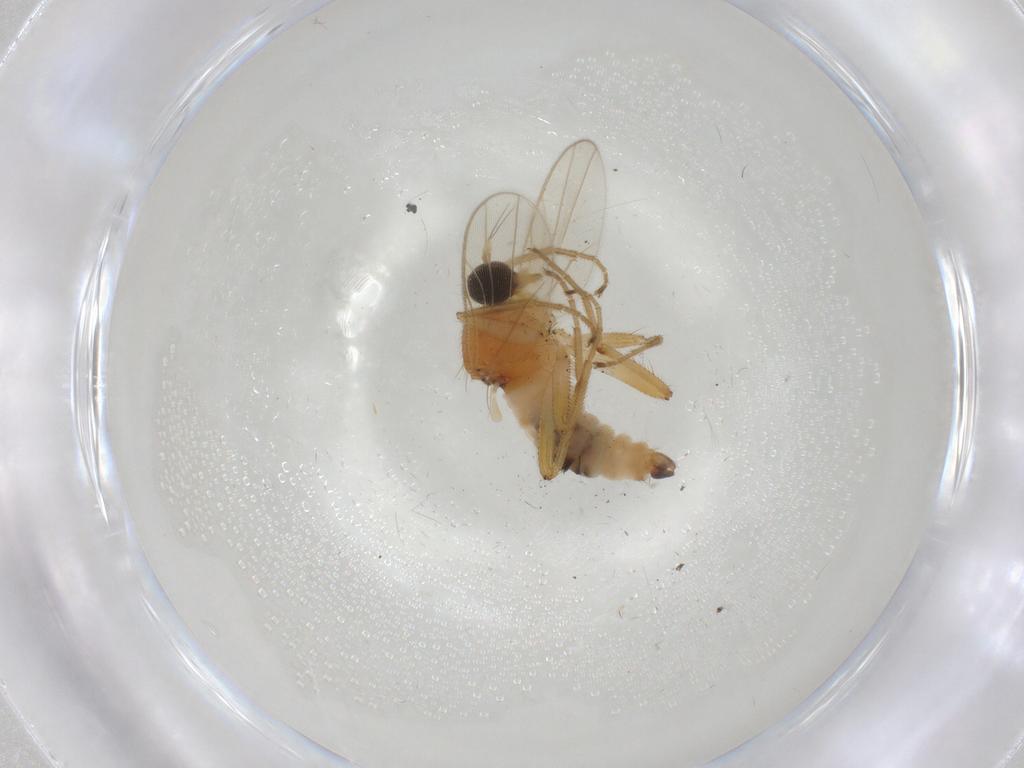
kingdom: Animalia
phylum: Arthropoda
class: Insecta
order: Diptera
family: Hybotidae
